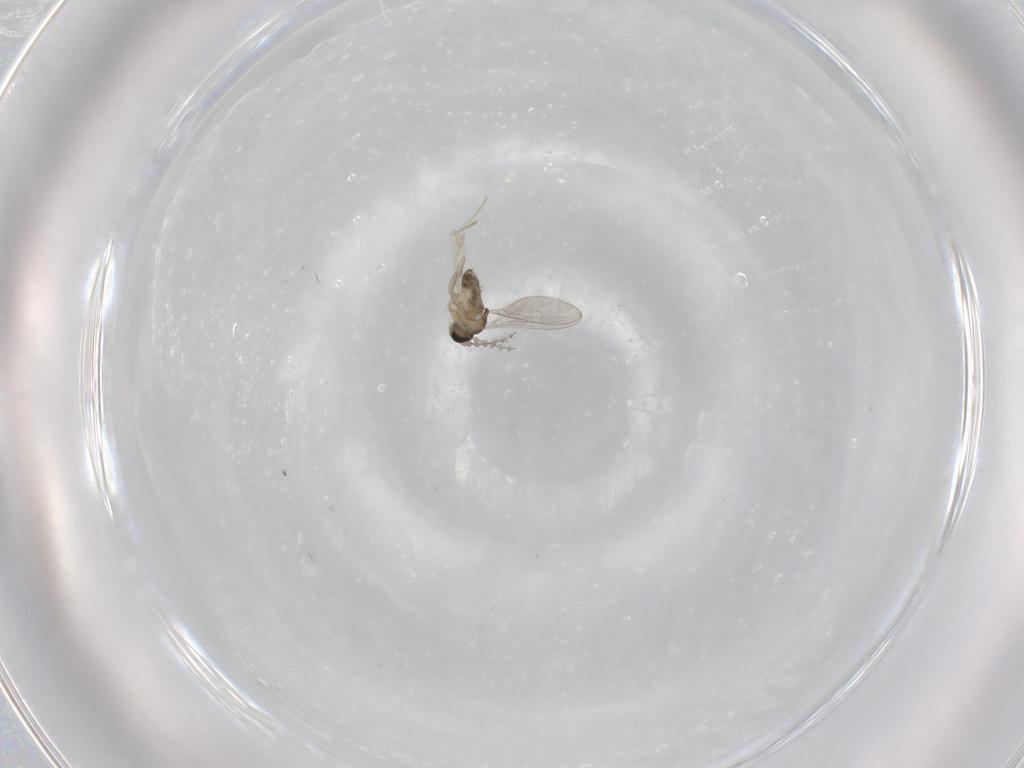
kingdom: Animalia
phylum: Arthropoda
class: Insecta
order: Diptera
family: Cecidomyiidae
